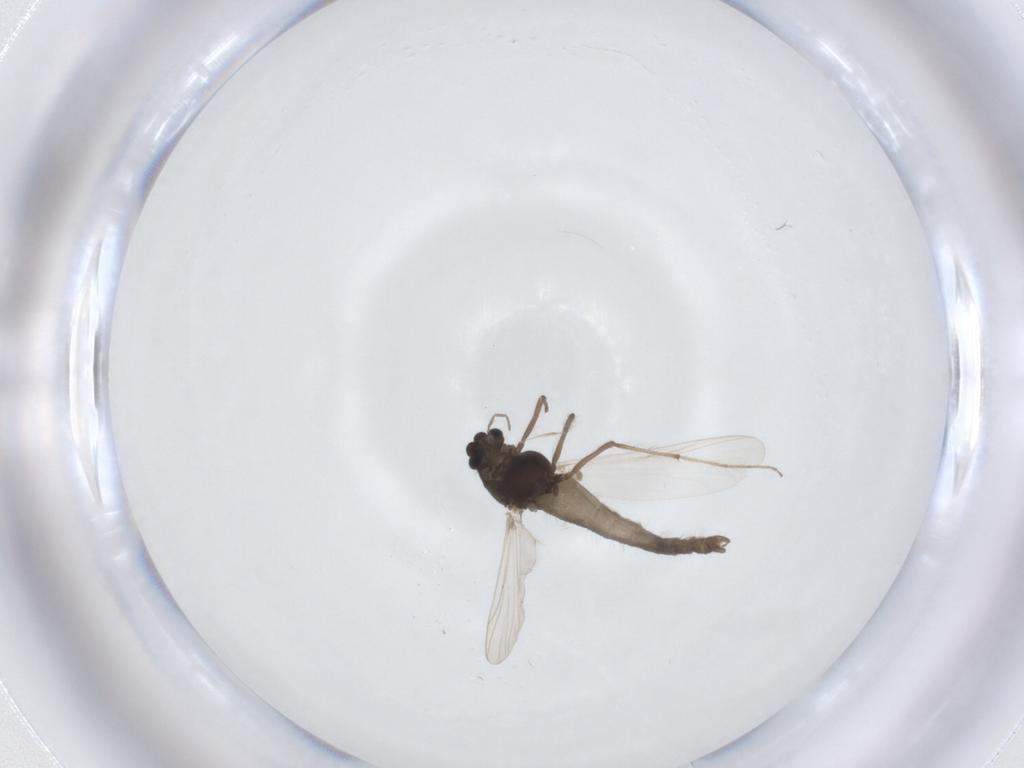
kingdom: Animalia
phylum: Arthropoda
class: Insecta
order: Diptera
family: Chironomidae
